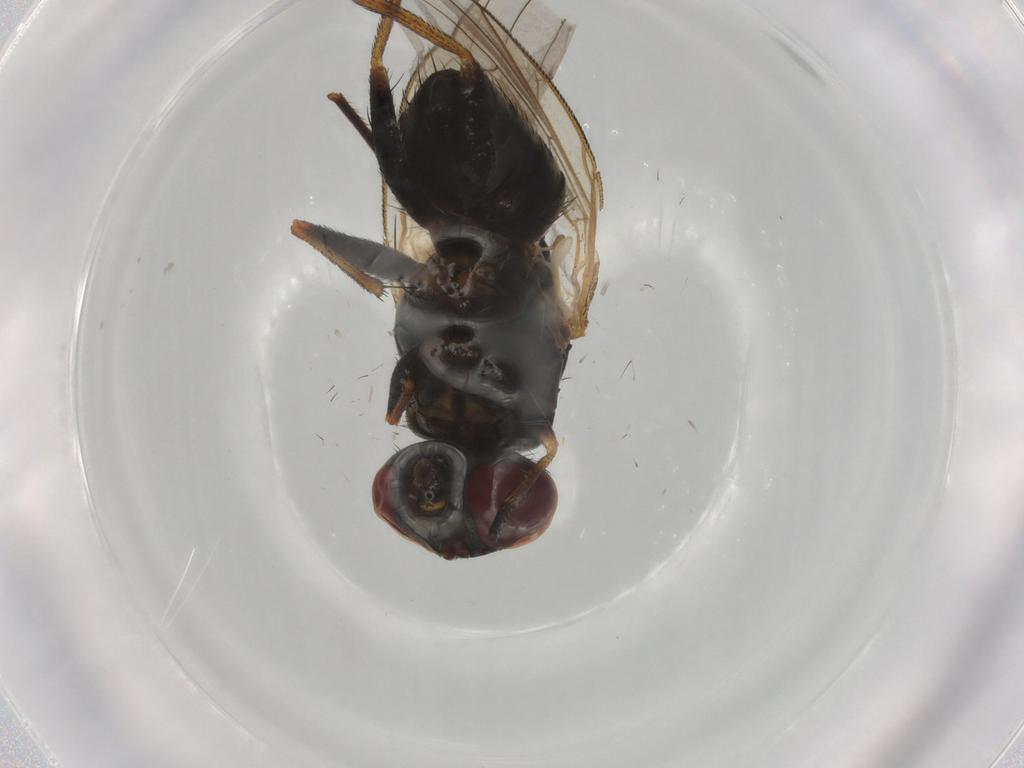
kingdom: Animalia
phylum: Arthropoda
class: Insecta
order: Diptera
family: Muscidae
